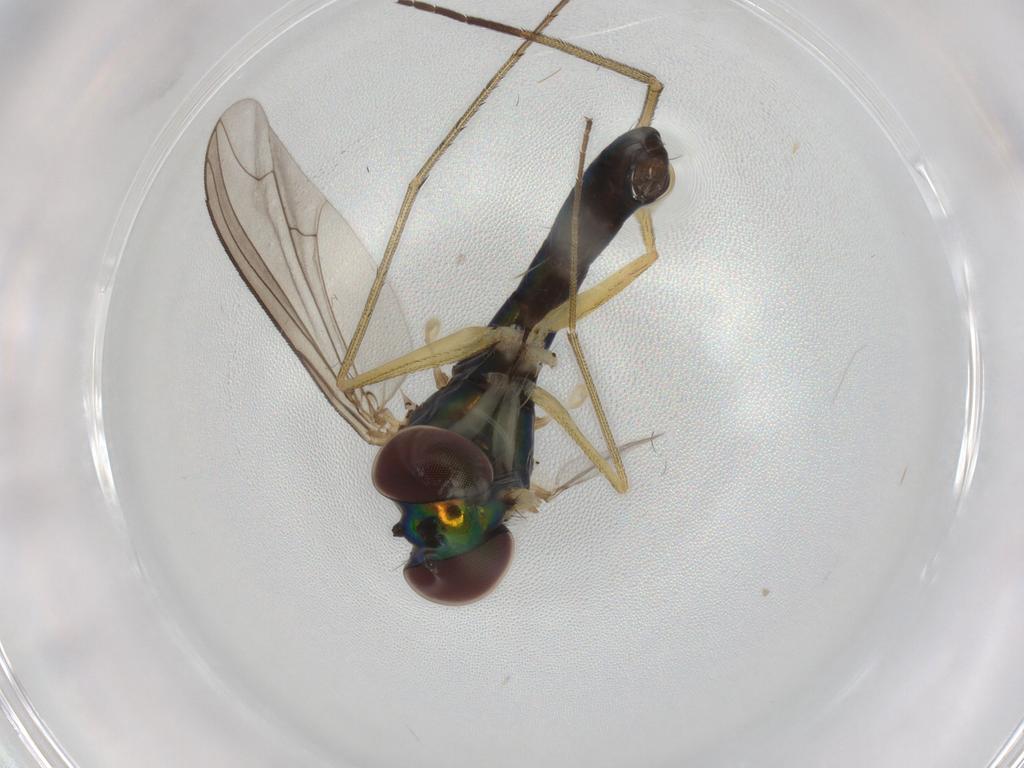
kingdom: Animalia
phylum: Arthropoda
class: Insecta
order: Diptera
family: Dolichopodidae
